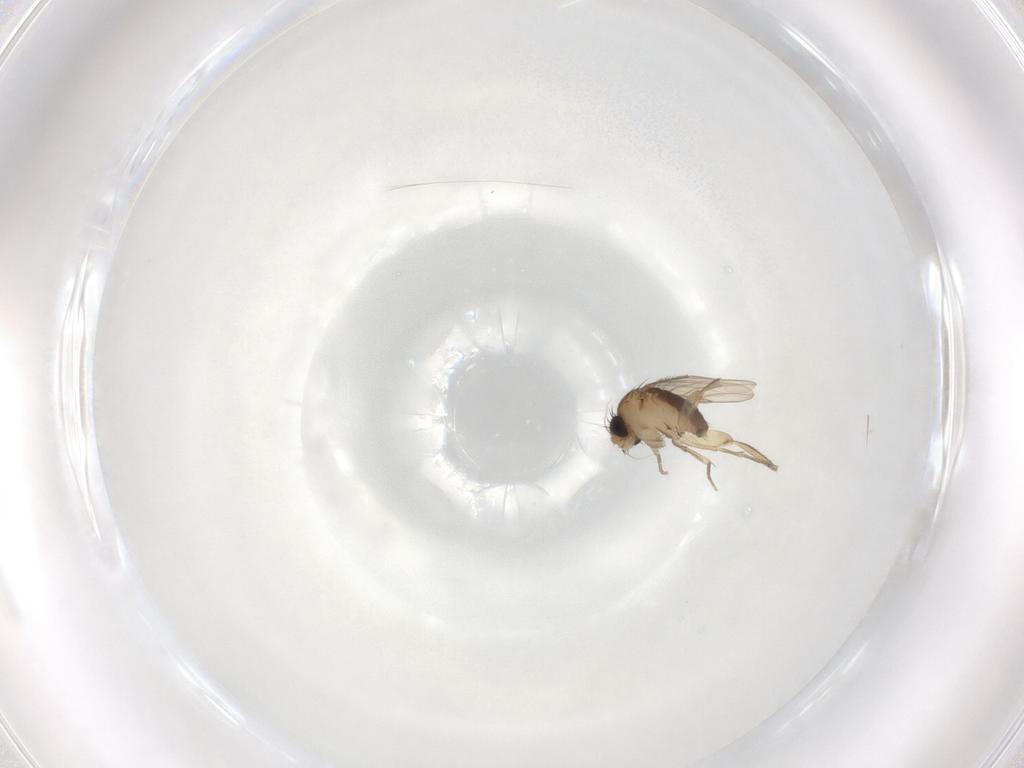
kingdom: Animalia
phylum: Arthropoda
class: Insecta
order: Diptera
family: Phoridae
